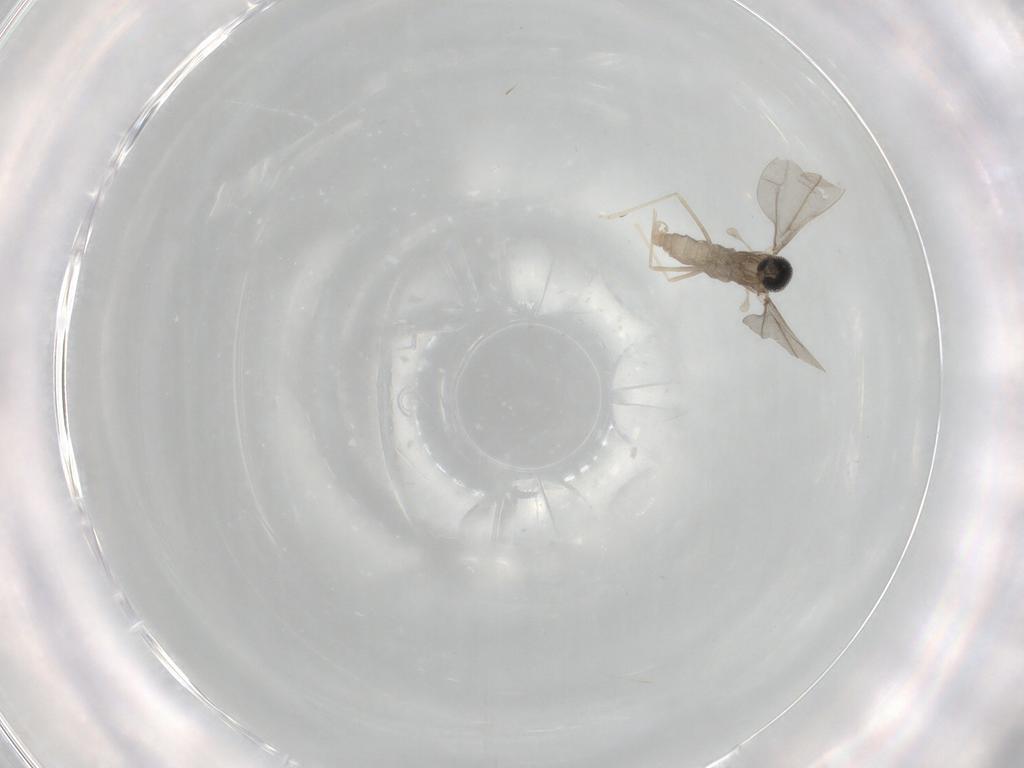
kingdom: Animalia
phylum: Arthropoda
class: Insecta
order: Diptera
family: Cecidomyiidae
